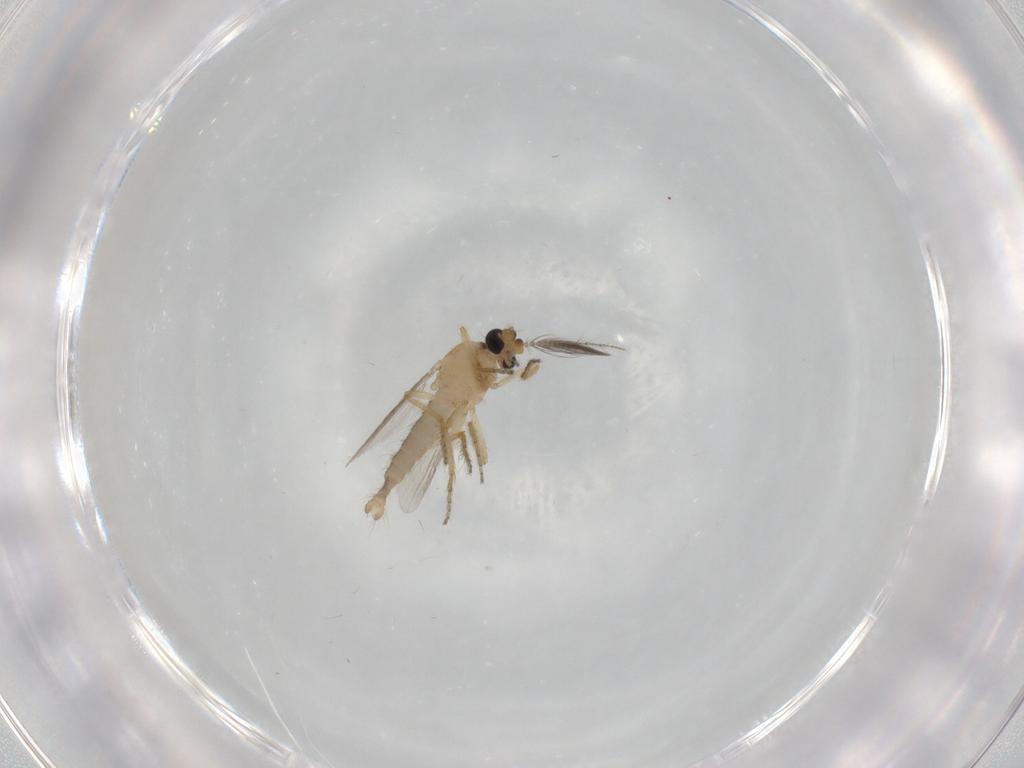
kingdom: Animalia
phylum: Arthropoda
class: Insecta
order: Diptera
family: Ceratopogonidae
